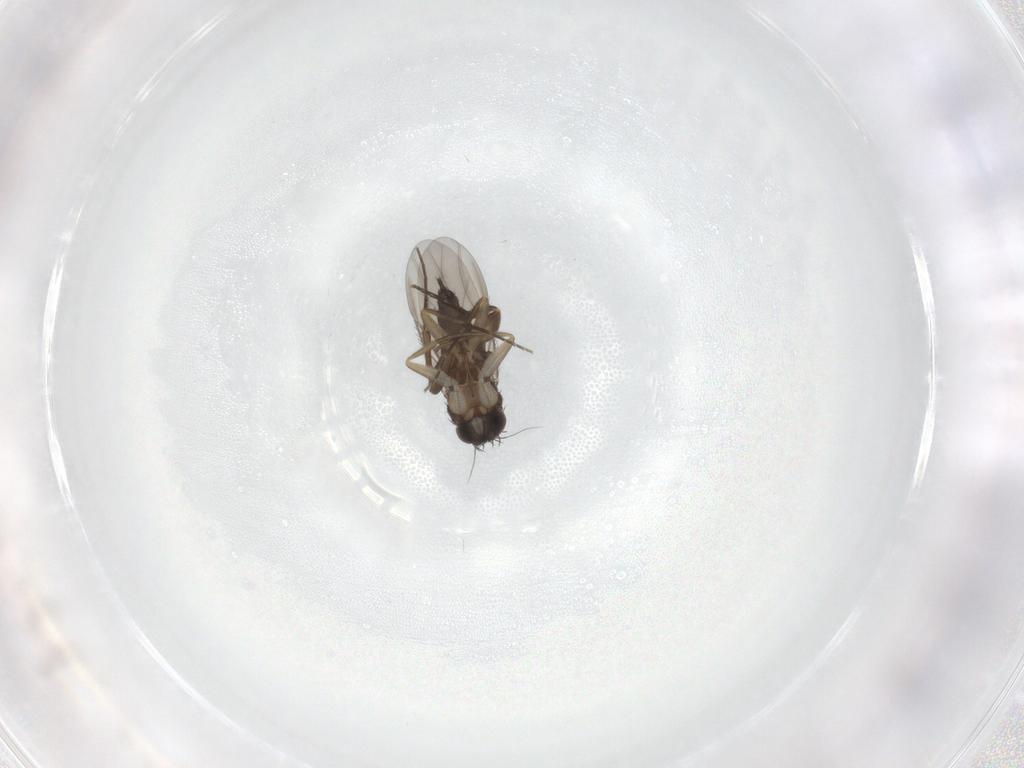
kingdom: Animalia
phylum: Arthropoda
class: Insecta
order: Diptera
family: Phoridae
